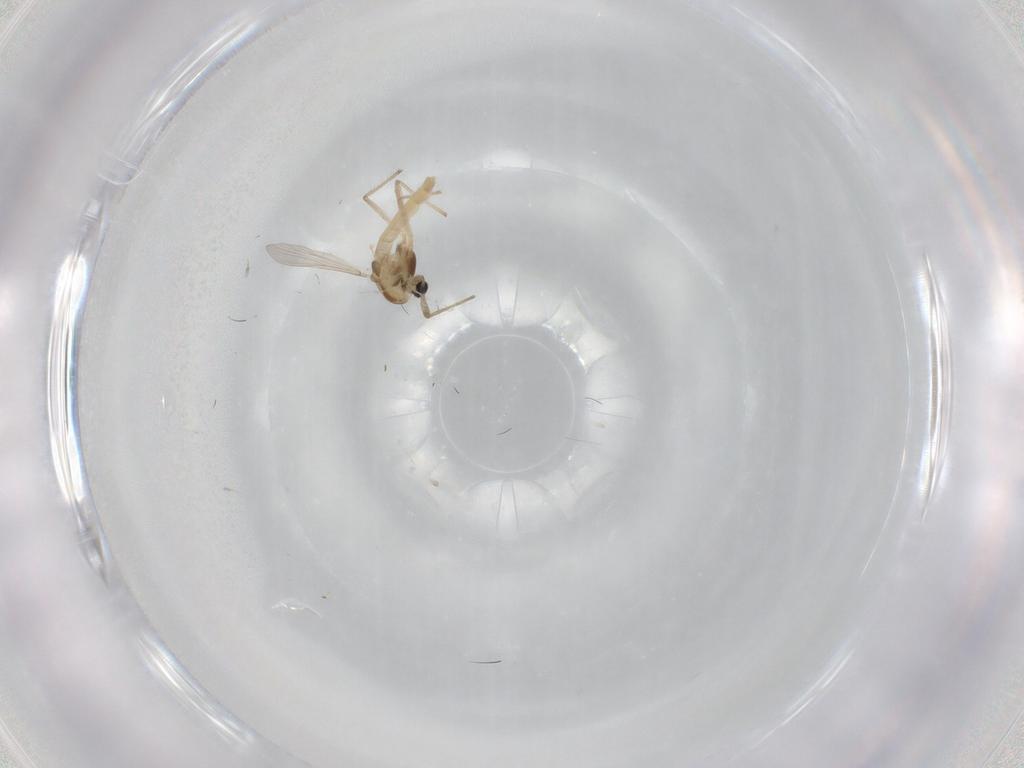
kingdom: Animalia
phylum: Arthropoda
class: Insecta
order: Diptera
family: Chironomidae
